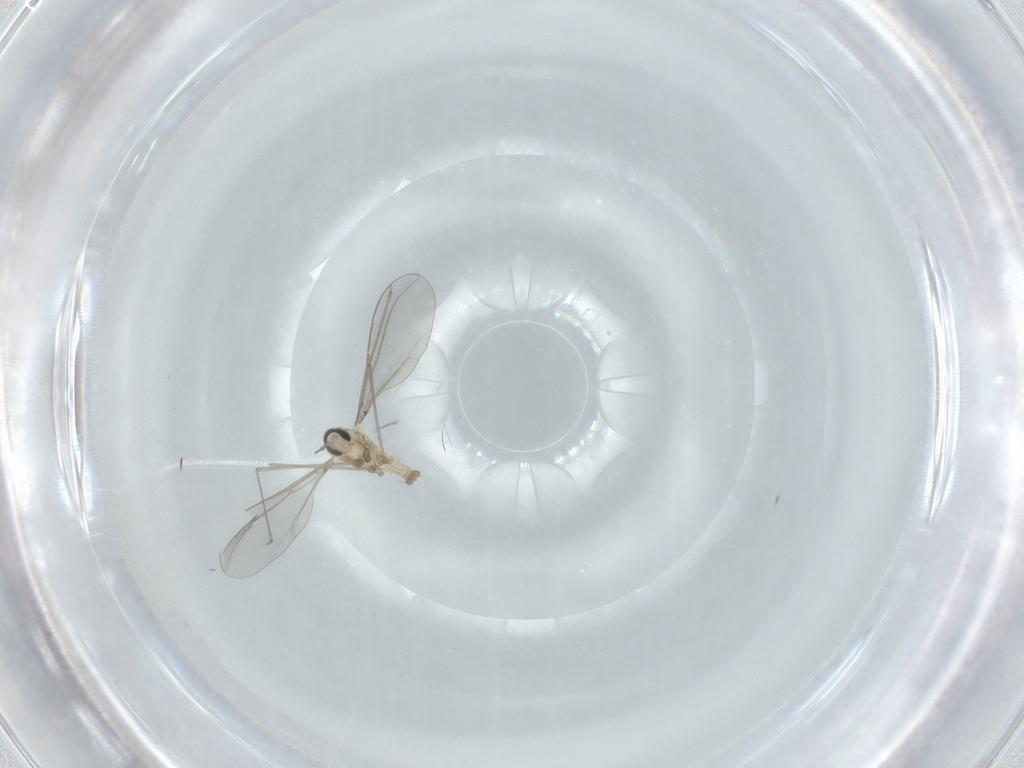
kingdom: Animalia
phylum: Arthropoda
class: Insecta
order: Diptera
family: Cecidomyiidae
